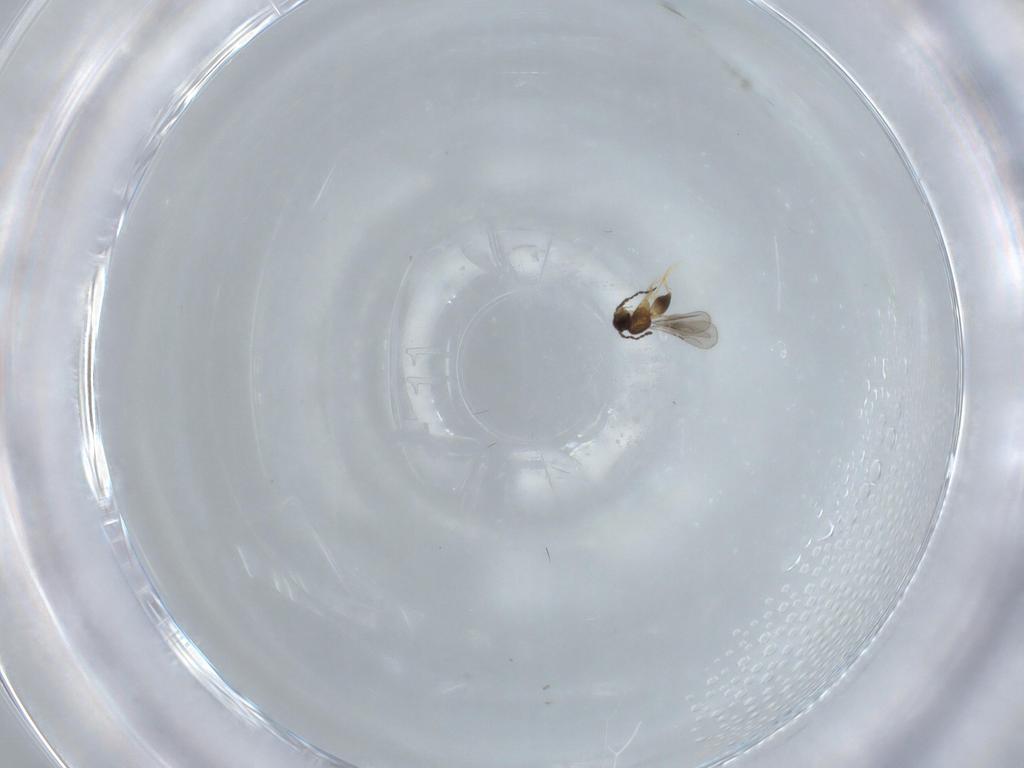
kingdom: Animalia
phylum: Arthropoda
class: Insecta
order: Hymenoptera
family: Ceraphronidae
